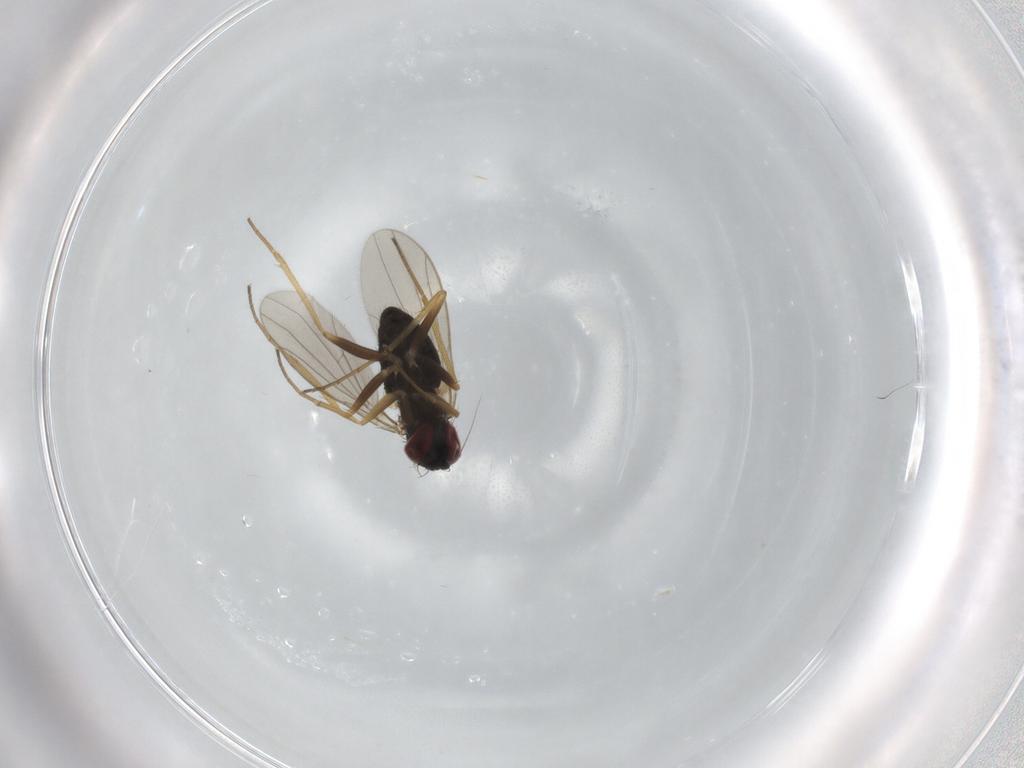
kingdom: Animalia
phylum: Arthropoda
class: Insecta
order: Diptera
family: Dolichopodidae
